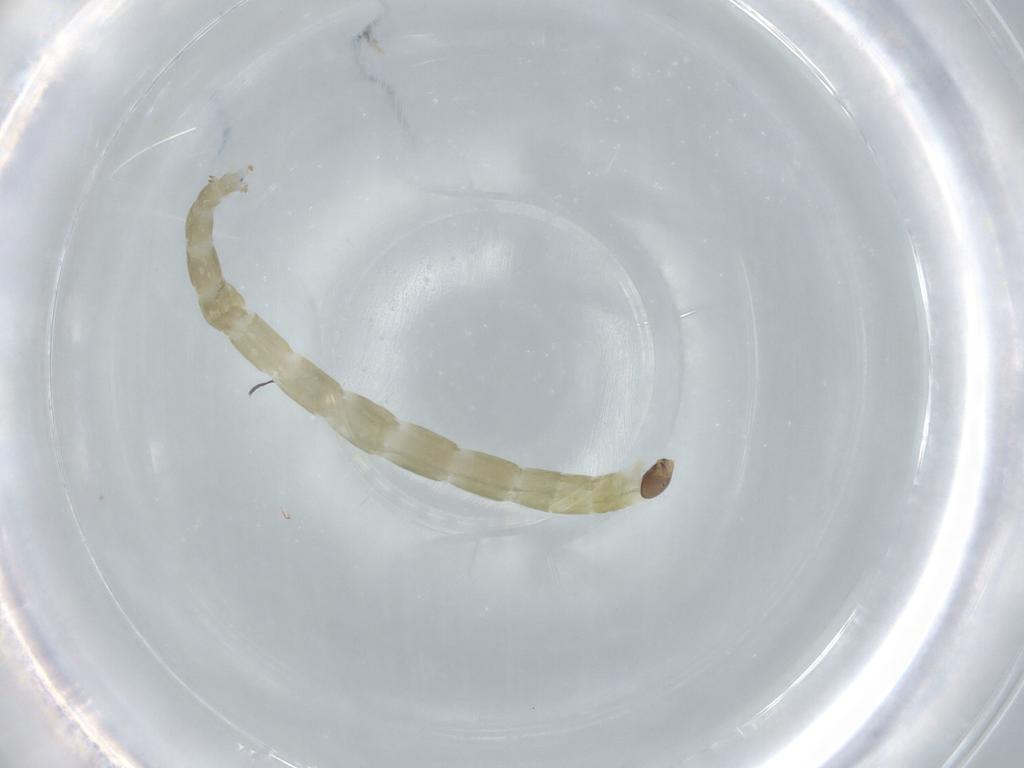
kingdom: Animalia
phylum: Arthropoda
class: Insecta
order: Diptera
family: Chironomidae
